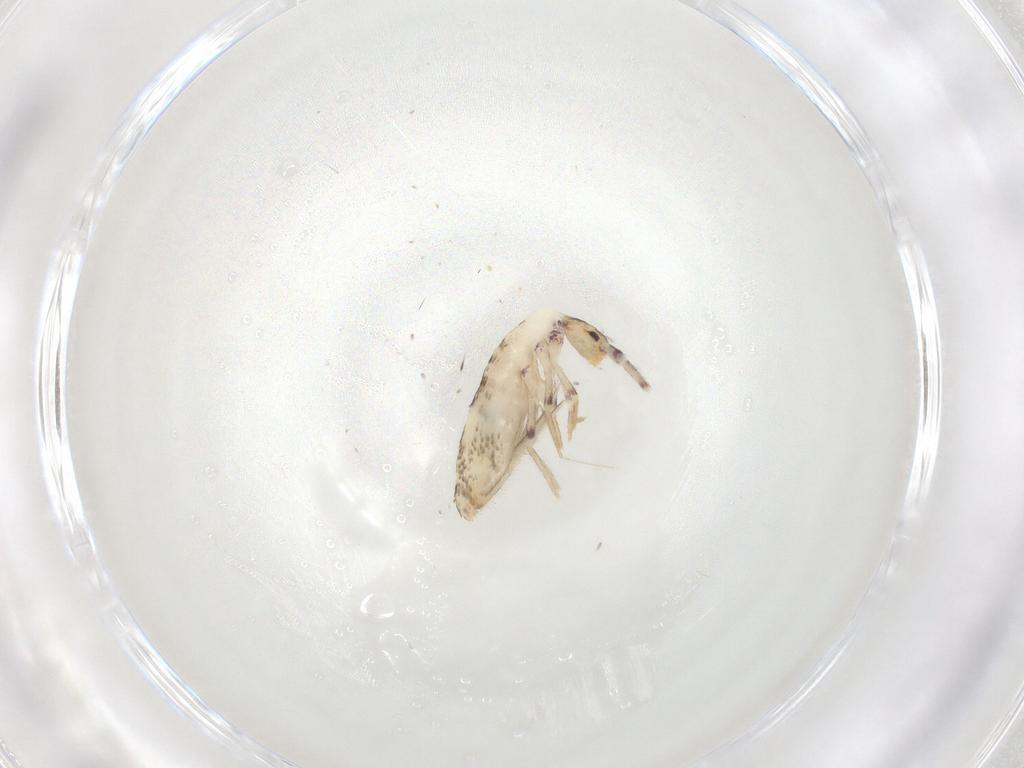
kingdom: Animalia
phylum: Arthropoda
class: Collembola
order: Entomobryomorpha
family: Entomobryidae
